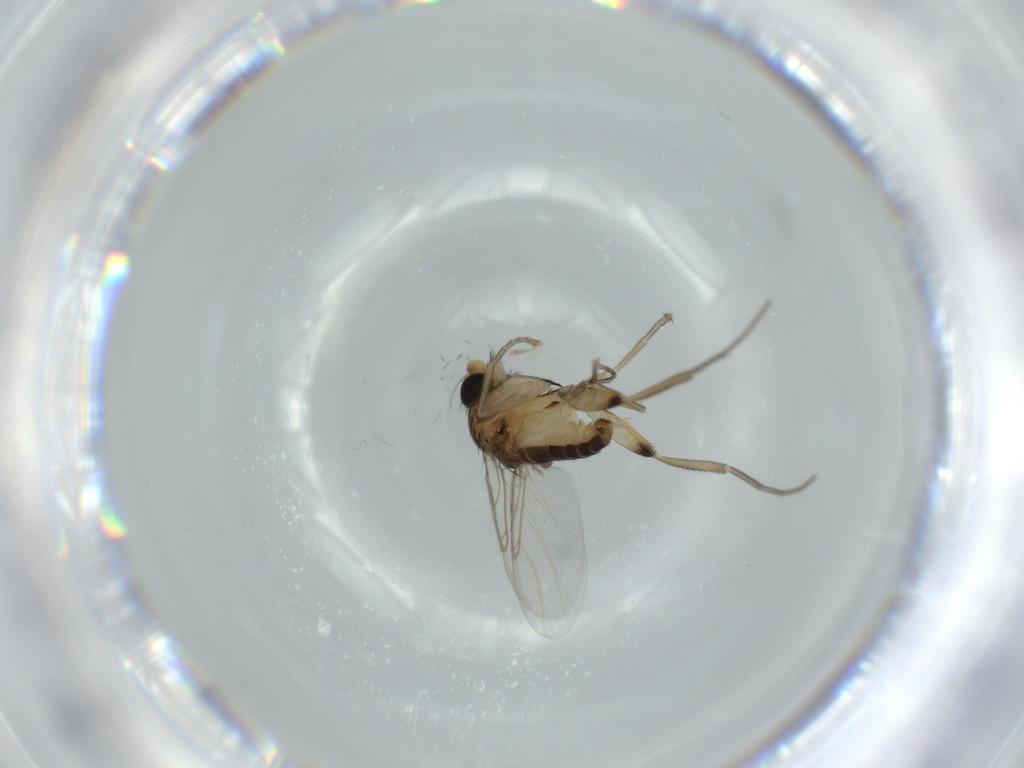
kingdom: Animalia
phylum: Arthropoda
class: Insecta
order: Diptera
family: Phoridae
